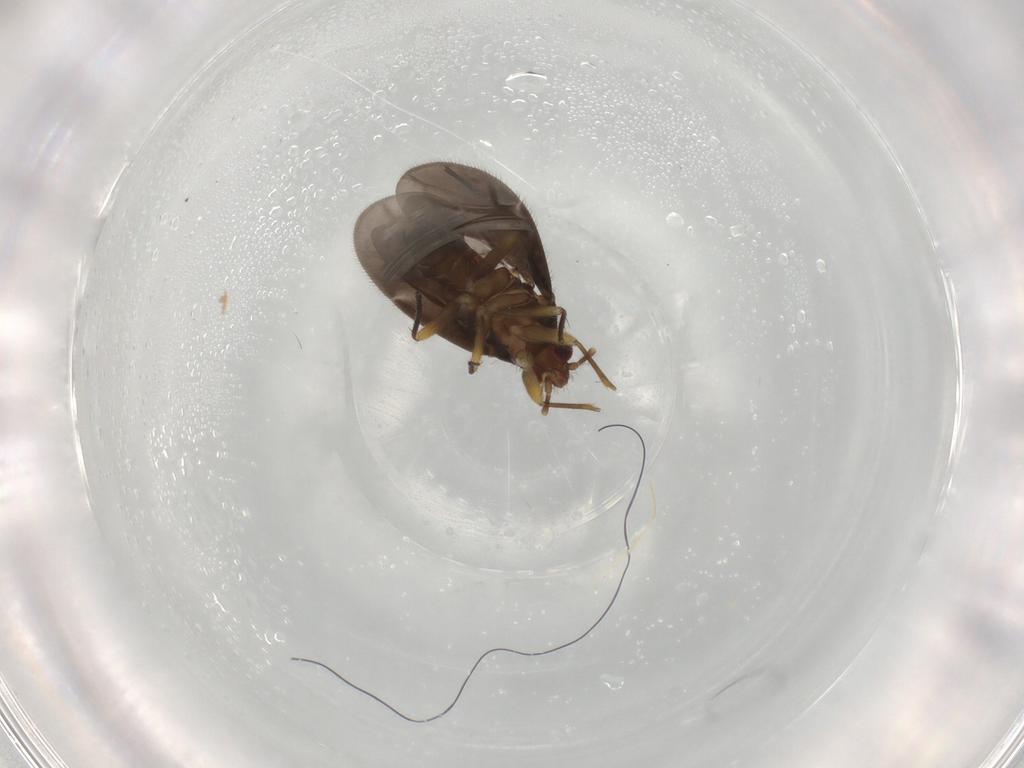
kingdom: Animalia
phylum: Arthropoda
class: Insecta
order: Hemiptera
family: Ceratocombidae
